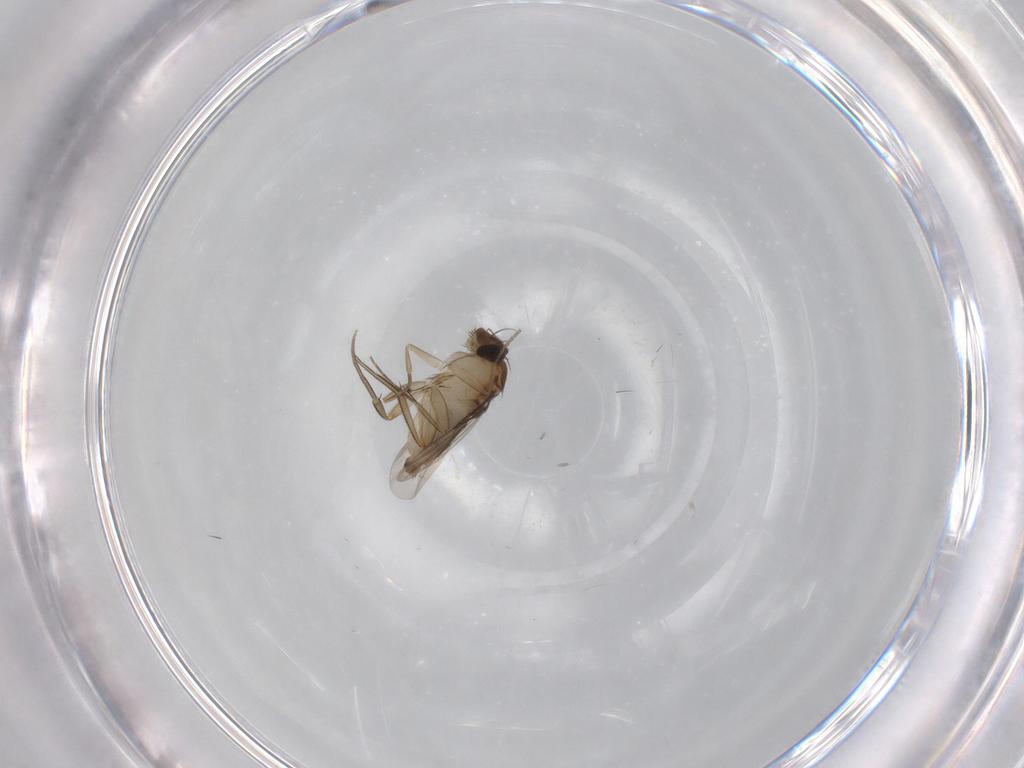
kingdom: Animalia
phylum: Arthropoda
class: Insecta
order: Diptera
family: Phoridae
